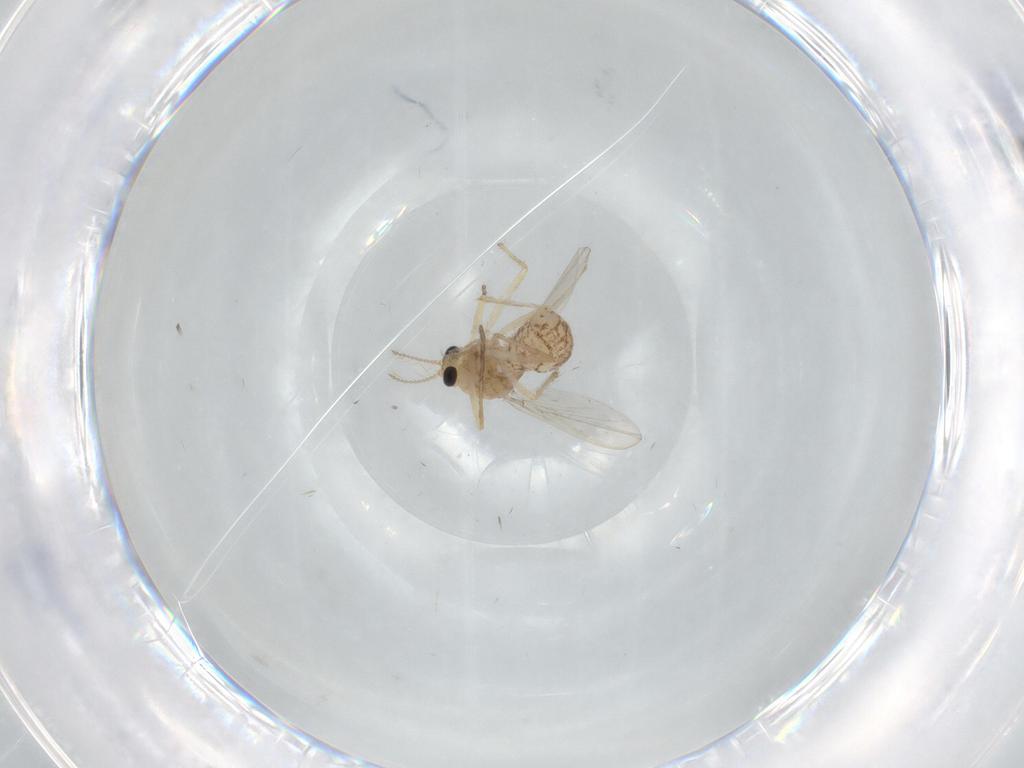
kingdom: Animalia
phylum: Arthropoda
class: Insecta
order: Diptera
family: Chironomidae
